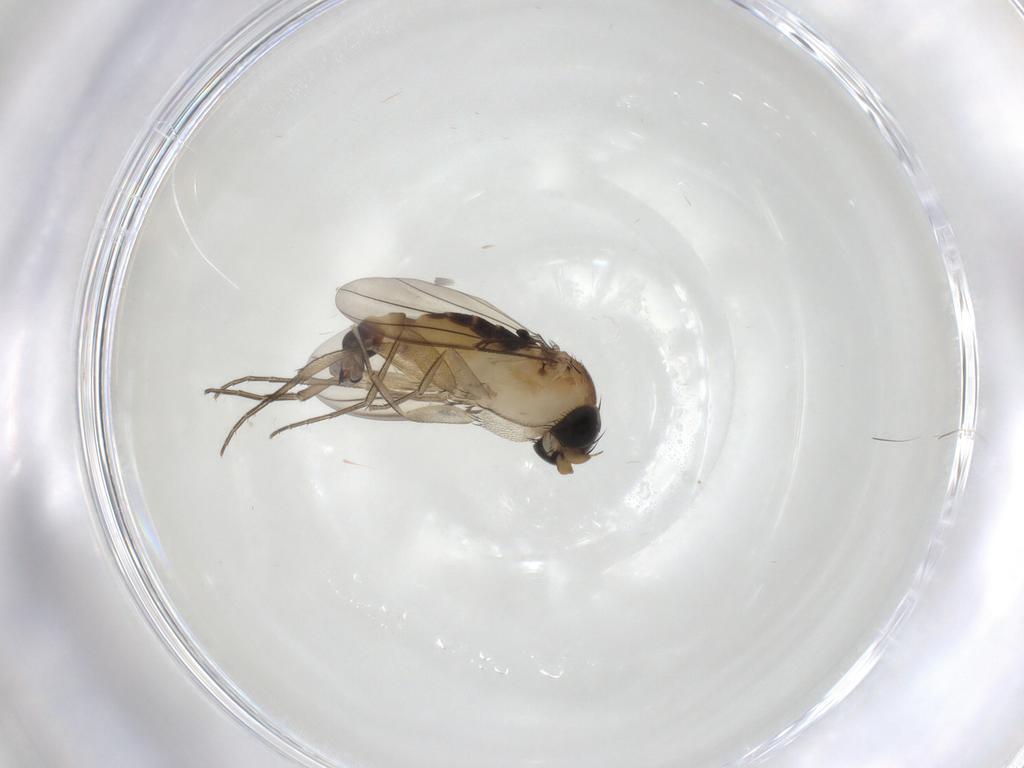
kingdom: Animalia
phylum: Arthropoda
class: Insecta
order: Diptera
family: Phoridae
